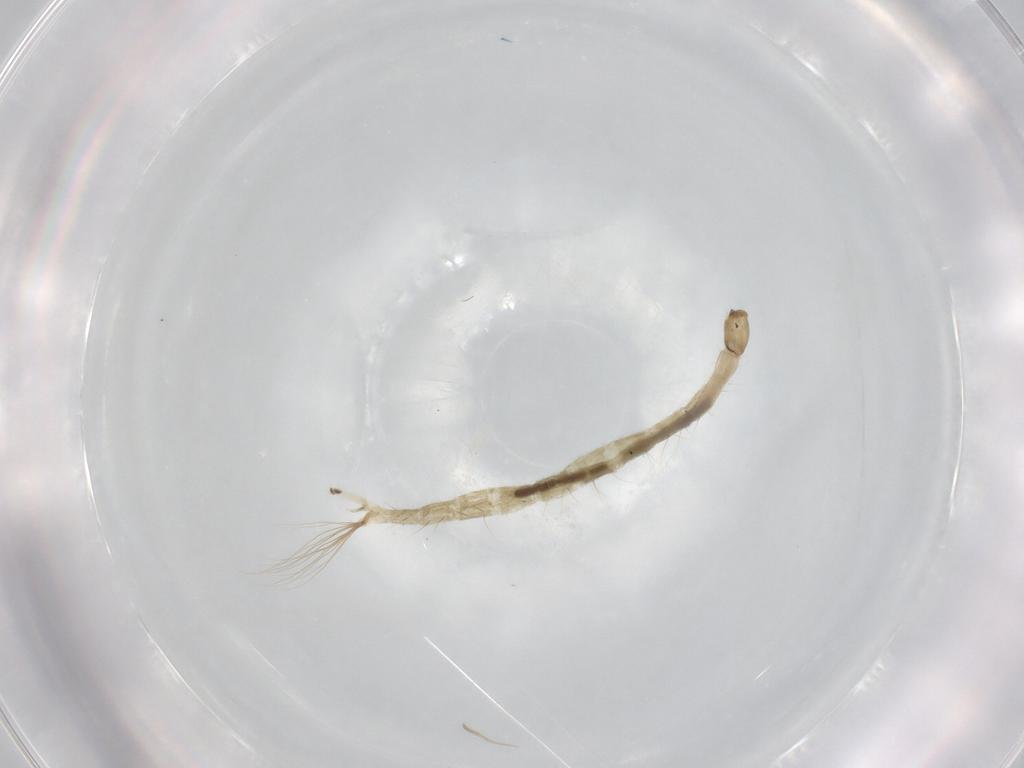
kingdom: Animalia
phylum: Arthropoda
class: Insecta
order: Diptera
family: Chironomidae
